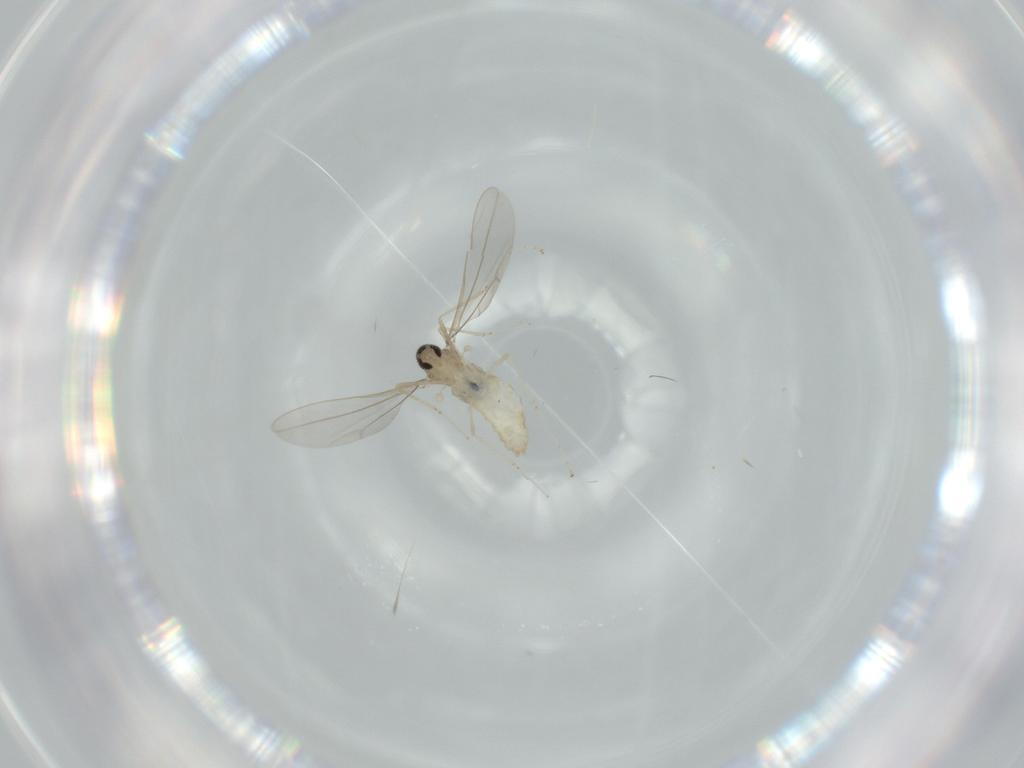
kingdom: Animalia
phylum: Arthropoda
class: Insecta
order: Diptera
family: Cecidomyiidae
